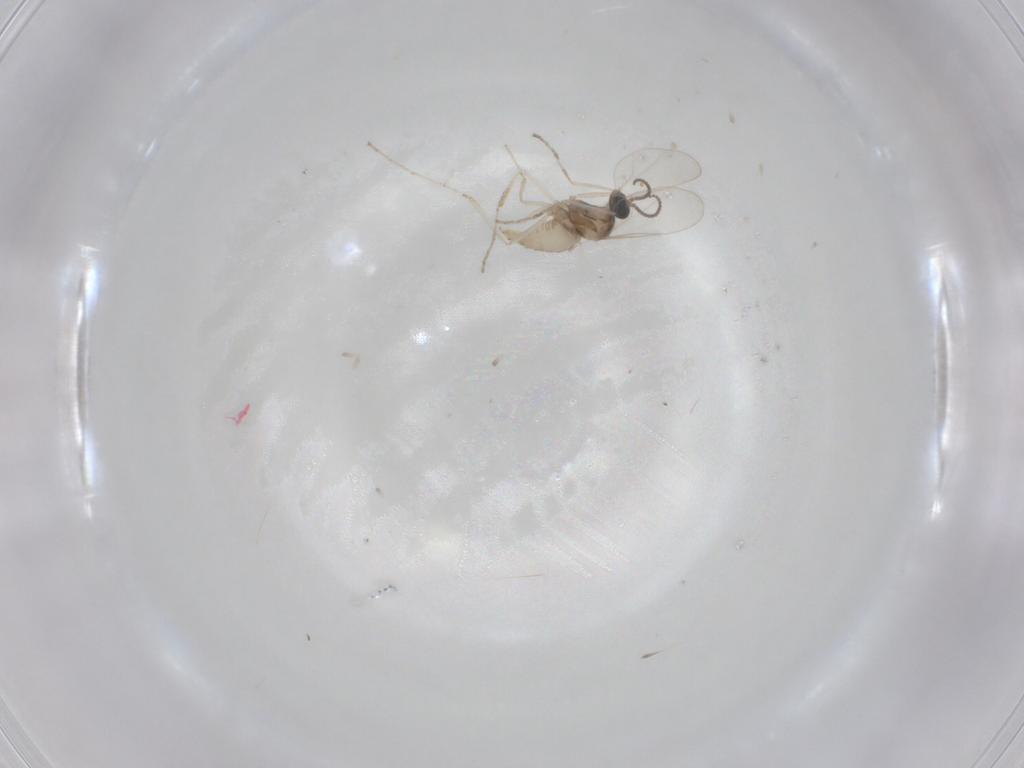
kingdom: Animalia
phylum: Arthropoda
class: Insecta
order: Diptera
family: Cecidomyiidae
